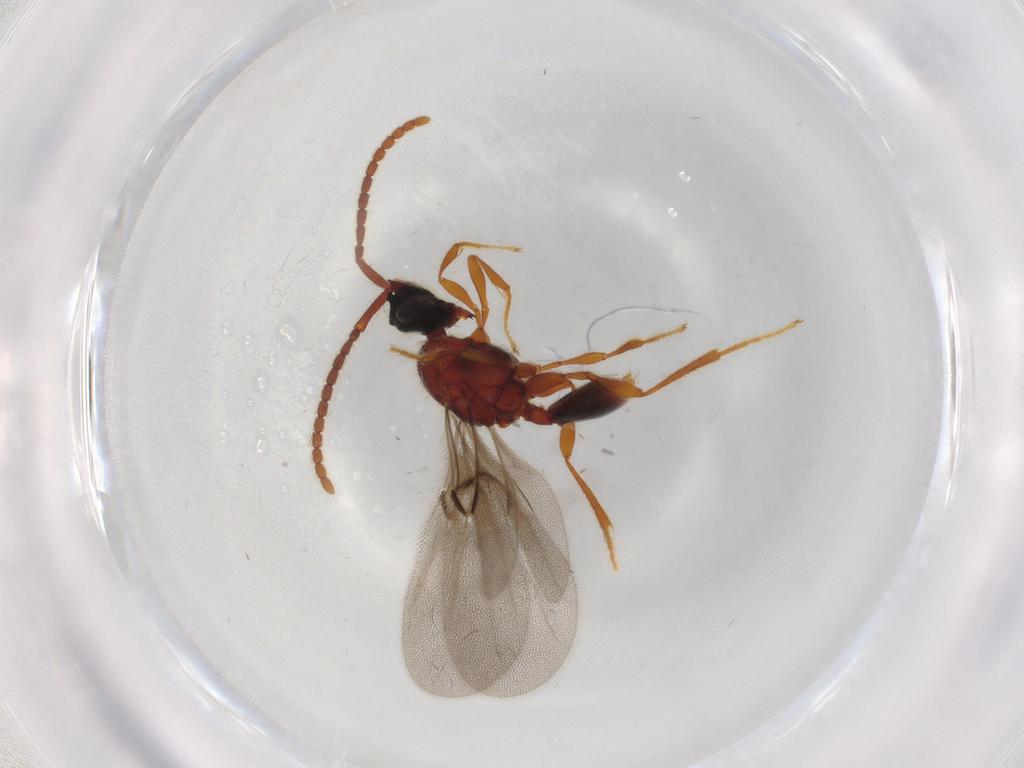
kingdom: Animalia
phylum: Arthropoda
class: Insecta
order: Hymenoptera
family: Diapriidae
